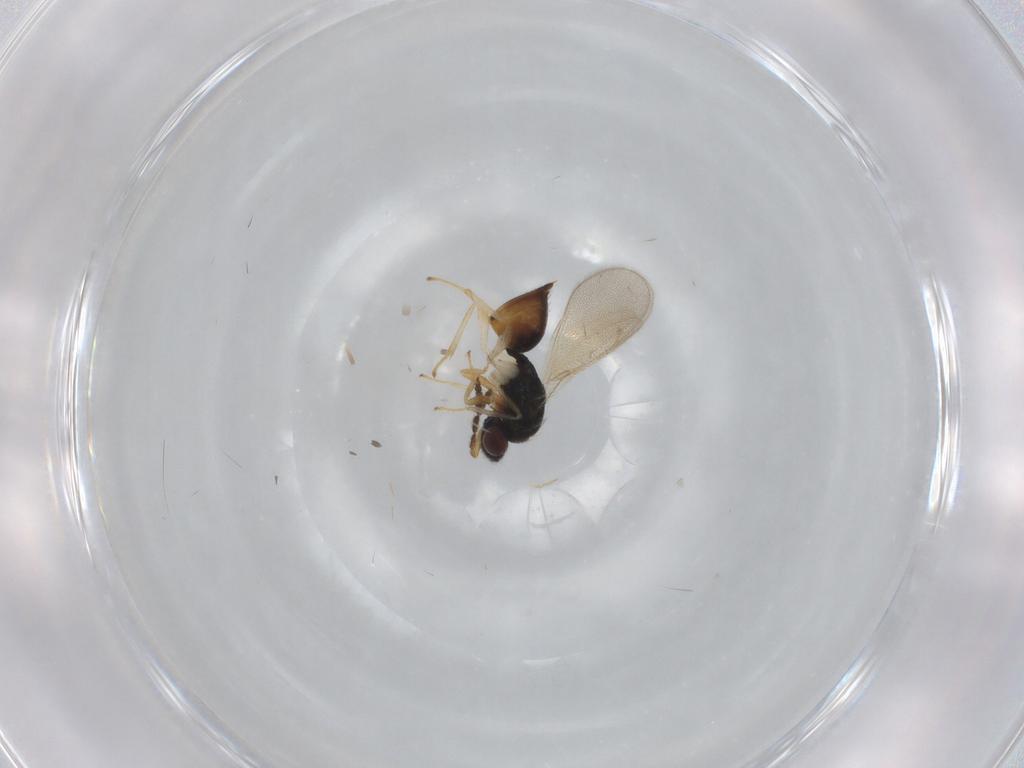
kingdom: Animalia
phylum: Arthropoda
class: Insecta
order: Hymenoptera
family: Eulophidae
